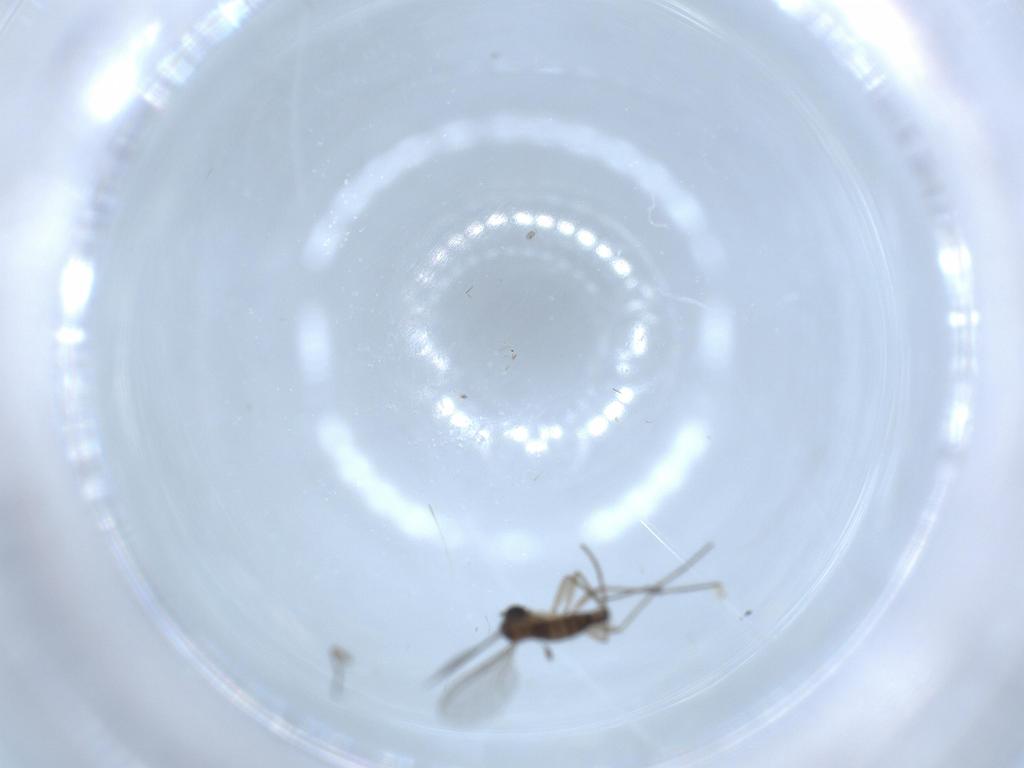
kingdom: Animalia
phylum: Arthropoda
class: Insecta
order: Diptera
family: Sciaridae
